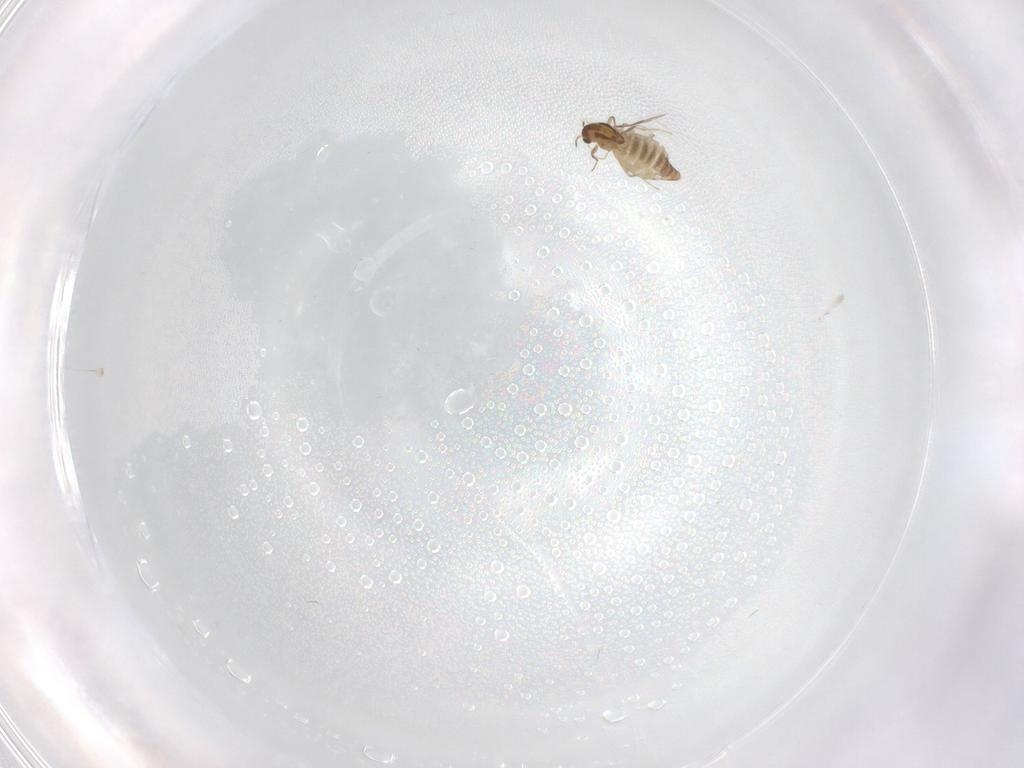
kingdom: Animalia
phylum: Arthropoda
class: Insecta
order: Diptera
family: Chironomidae
